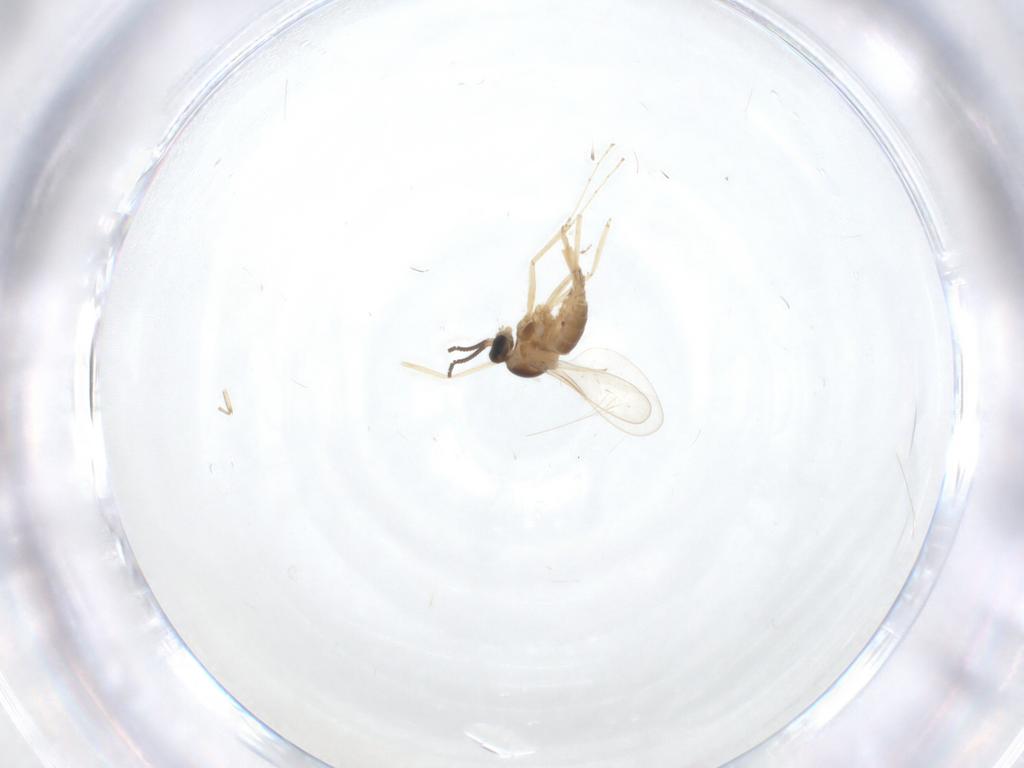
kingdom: Animalia
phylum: Arthropoda
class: Insecta
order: Diptera
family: Cecidomyiidae
